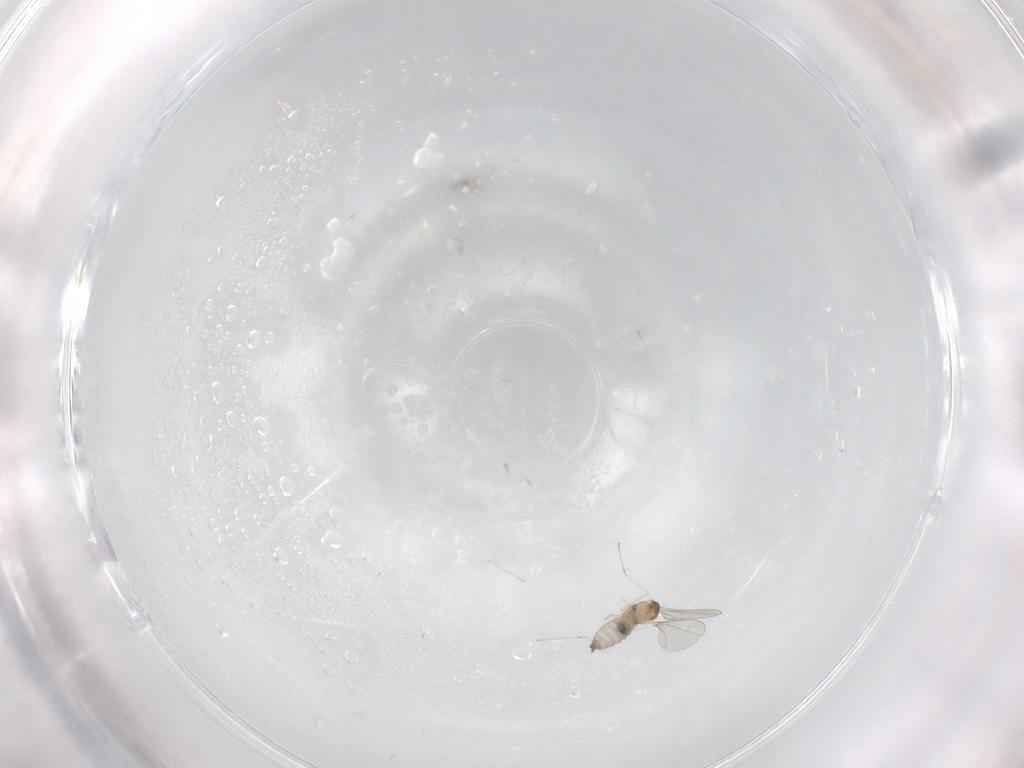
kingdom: Animalia
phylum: Arthropoda
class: Insecta
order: Diptera
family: Cecidomyiidae
